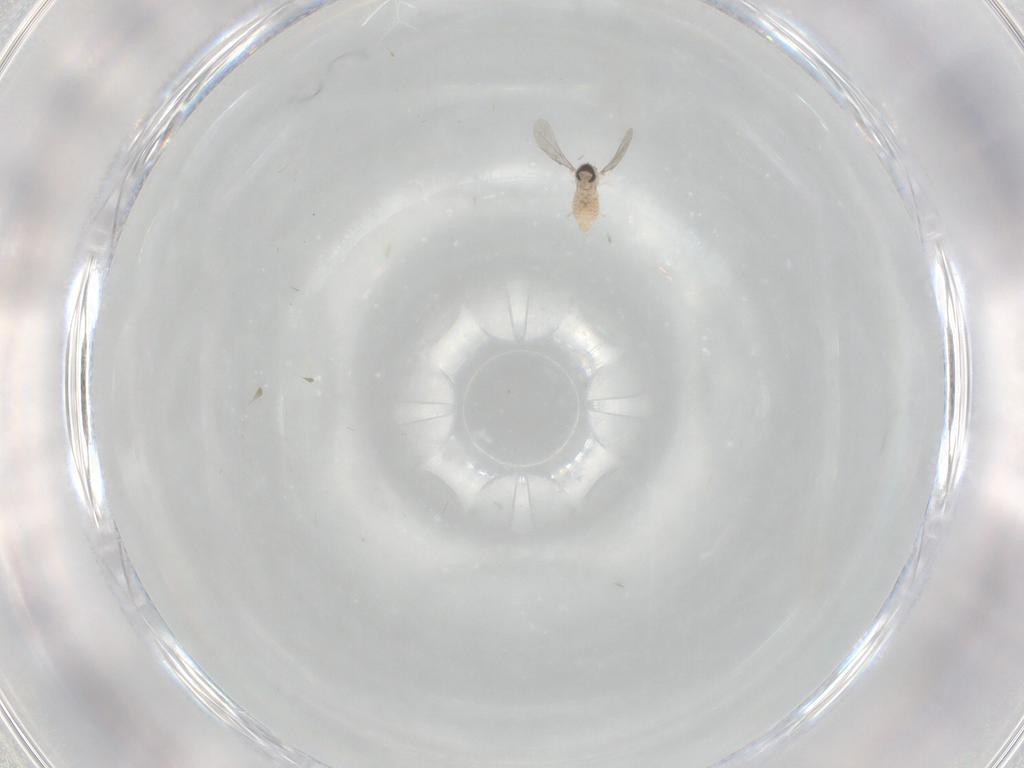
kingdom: Animalia
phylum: Arthropoda
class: Insecta
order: Diptera
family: Cecidomyiidae
